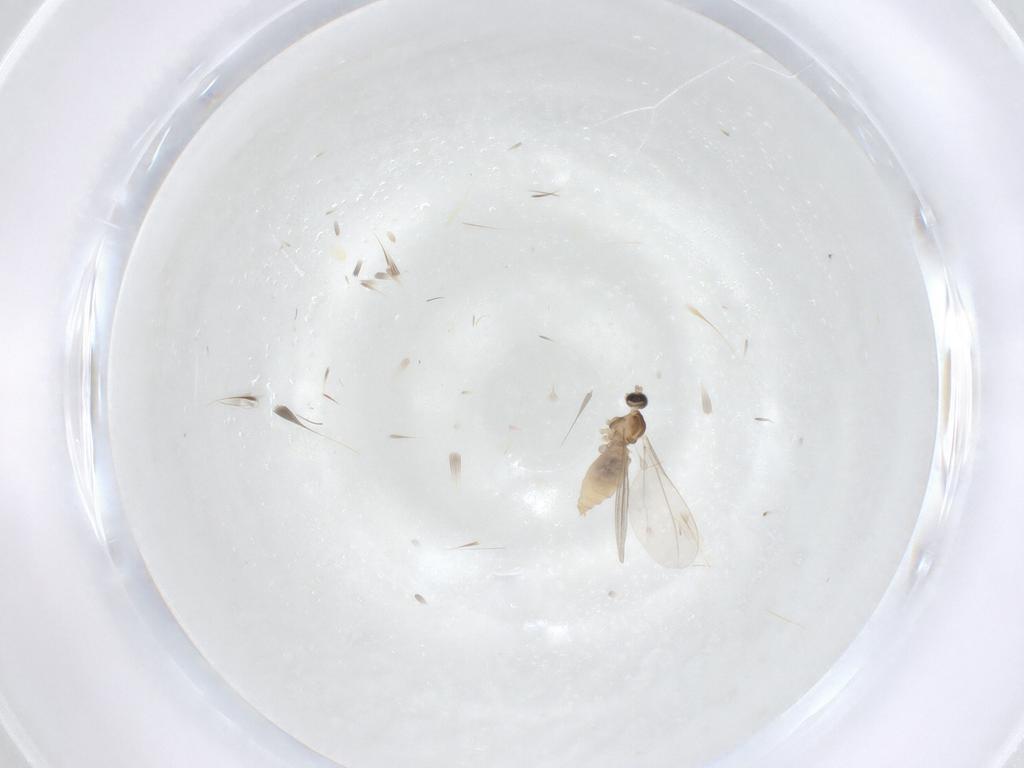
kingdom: Animalia
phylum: Arthropoda
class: Insecta
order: Diptera
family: Cecidomyiidae
